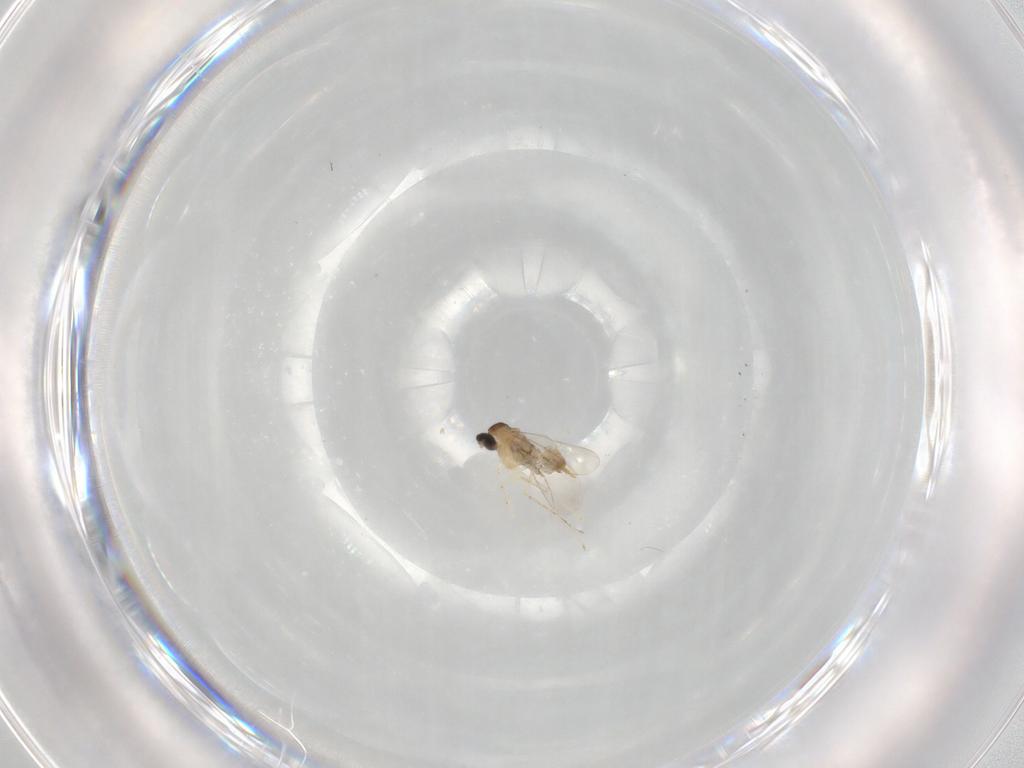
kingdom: Animalia
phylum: Arthropoda
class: Insecta
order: Diptera
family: Cecidomyiidae
